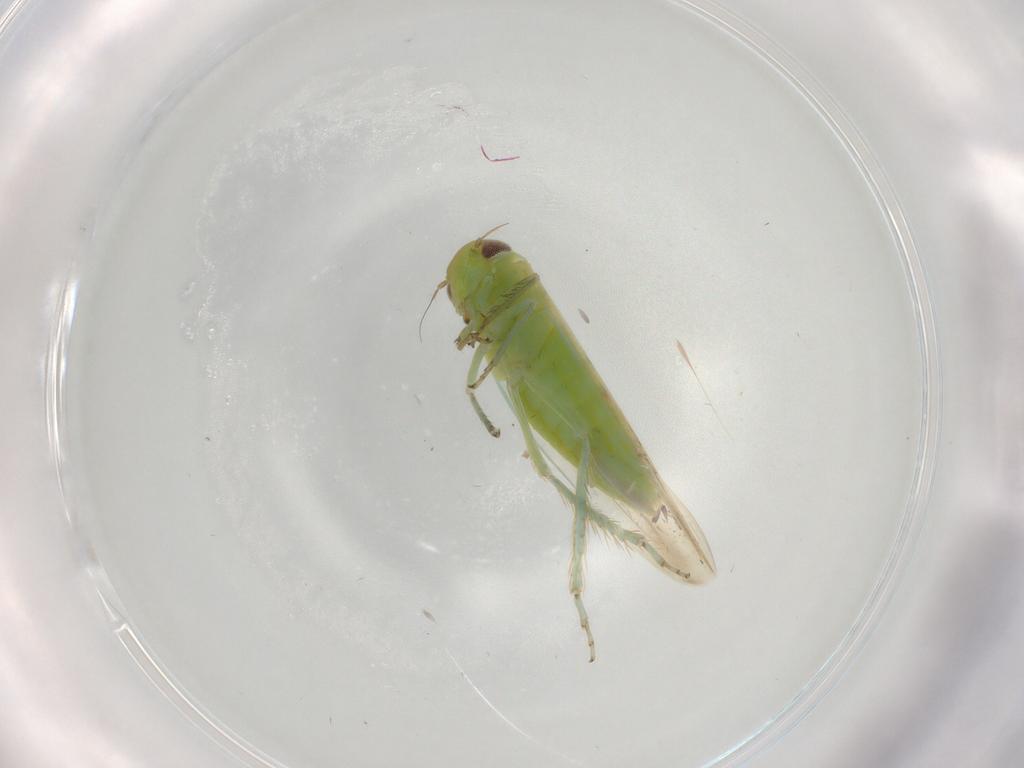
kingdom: Animalia
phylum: Arthropoda
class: Insecta
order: Hemiptera
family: Cicadellidae
